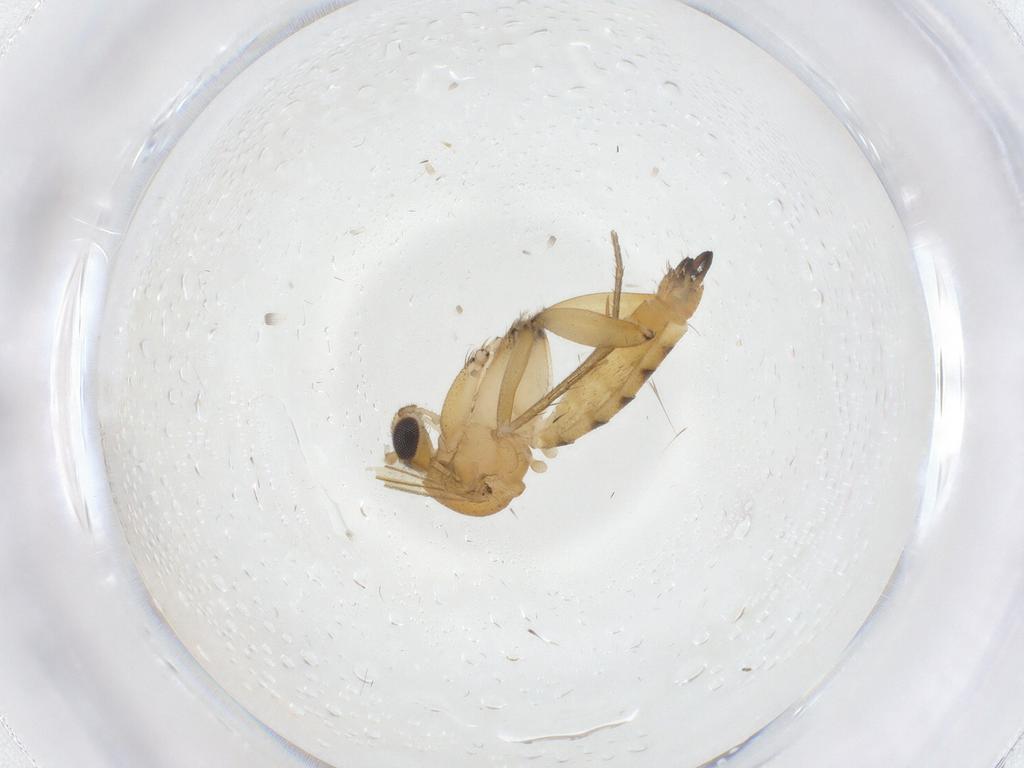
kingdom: Animalia
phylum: Arthropoda
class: Insecta
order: Diptera
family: Mycetophilidae
